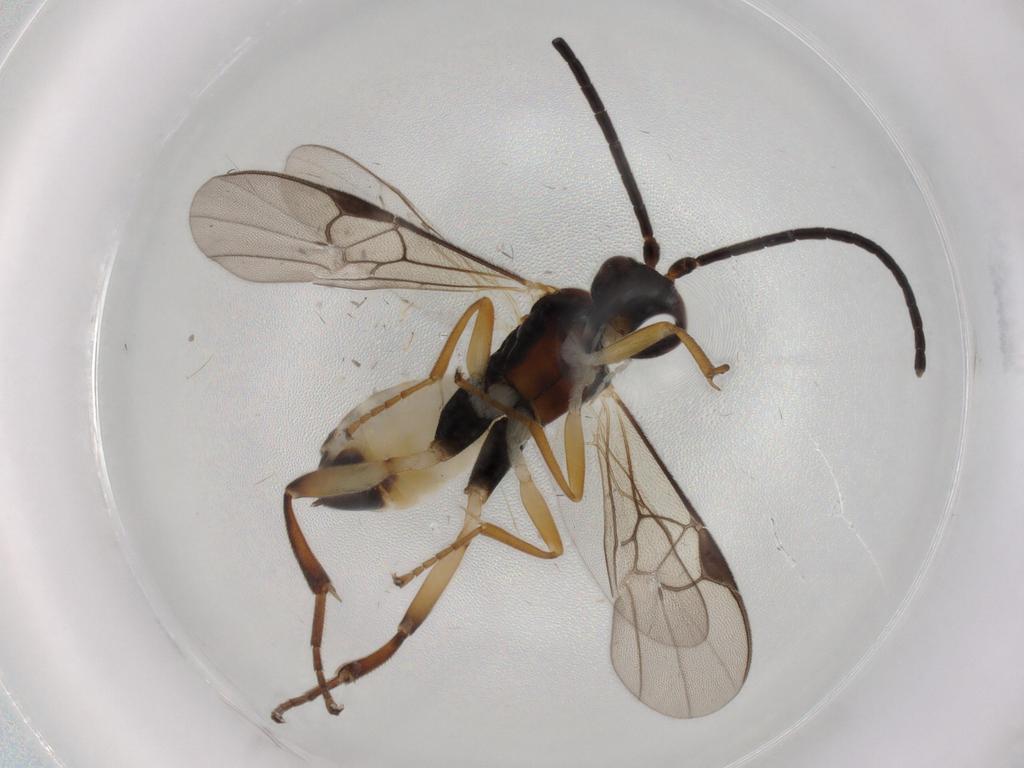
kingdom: Animalia
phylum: Arthropoda
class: Insecta
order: Hymenoptera
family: Braconidae
